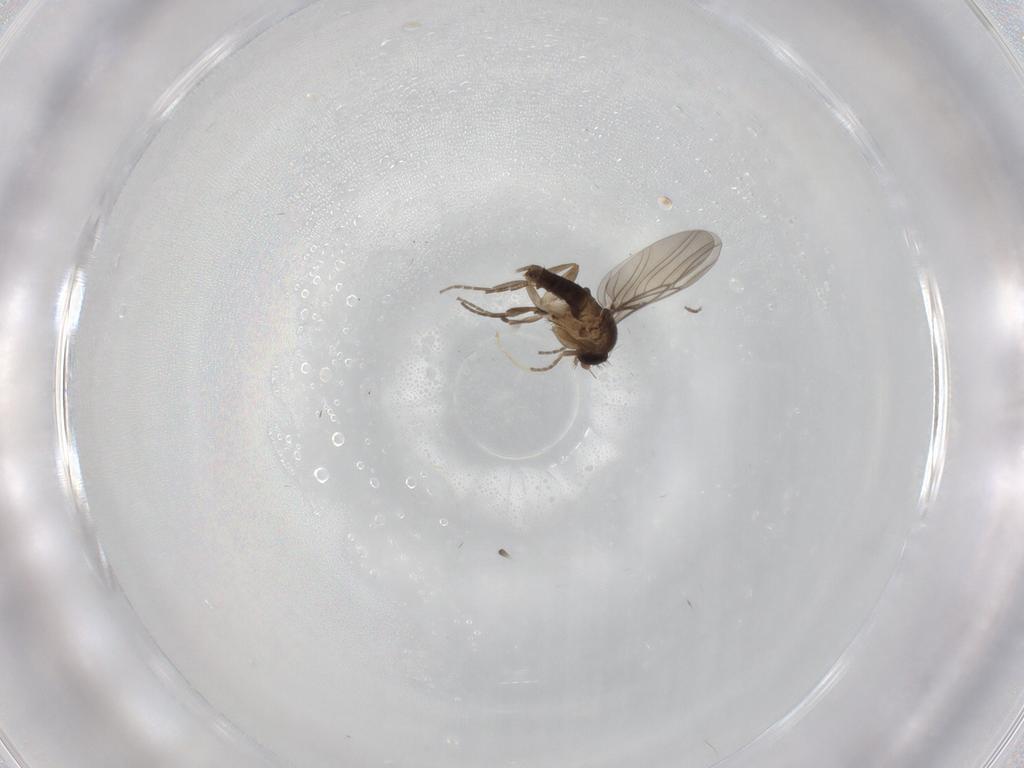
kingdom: Animalia
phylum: Arthropoda
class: Insecta
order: Diptera
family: Phoridae
